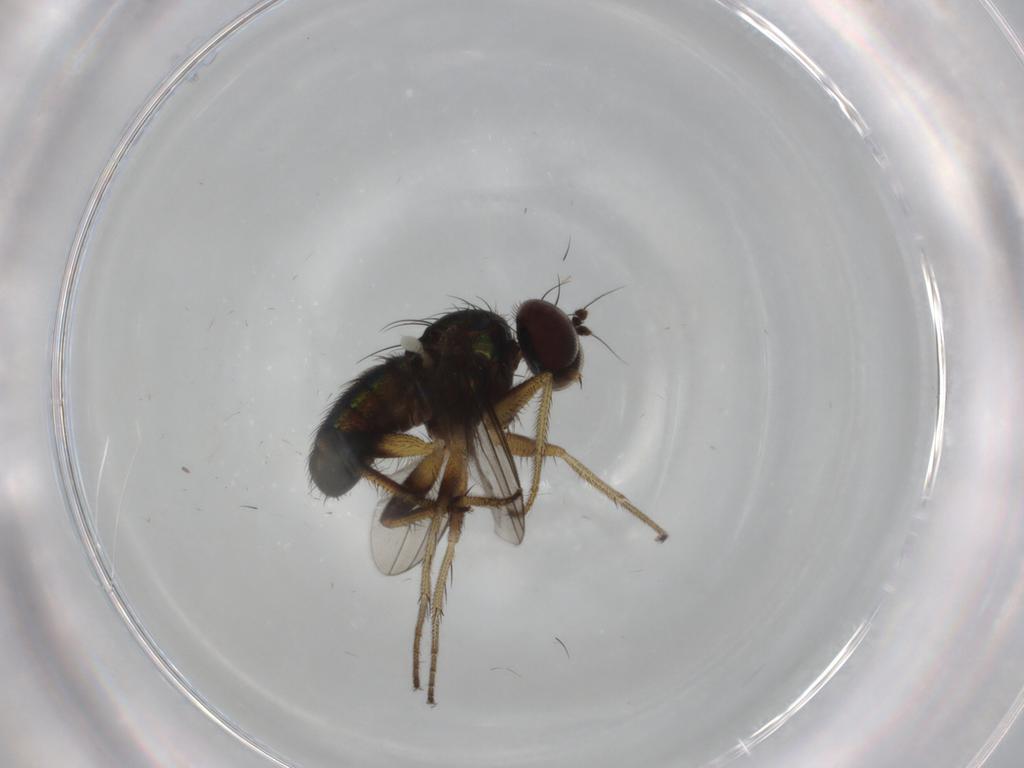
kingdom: Animalia
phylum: Arthropoda
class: Insecta
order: Diptera
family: Dolichopodidae
